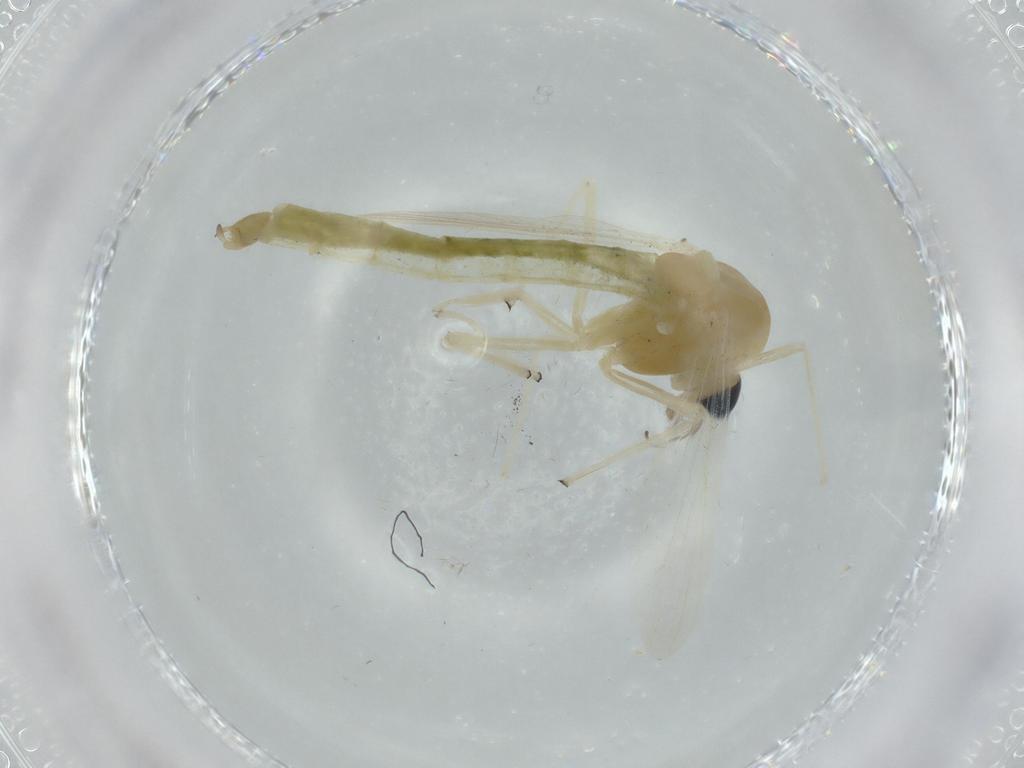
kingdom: Animalia
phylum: Arthropoda
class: Insecta
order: Diptera
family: Chironomidae
